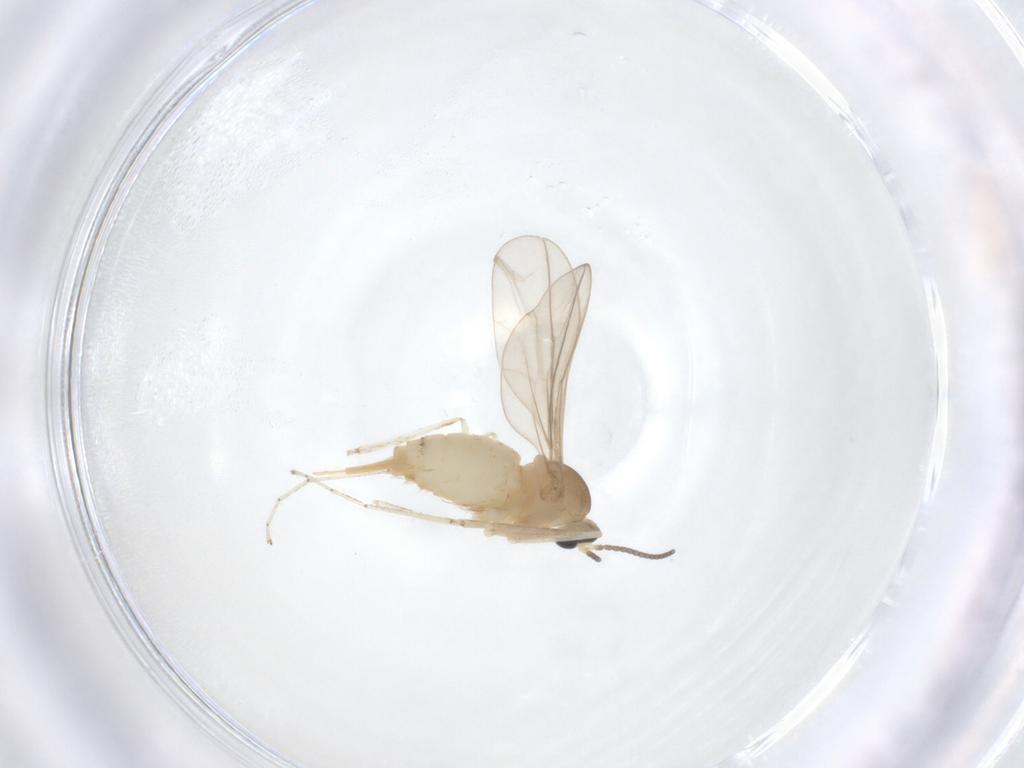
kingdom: Animalia
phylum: Arthropoda
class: Insecta
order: Diptera
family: Cecidomyiidae
